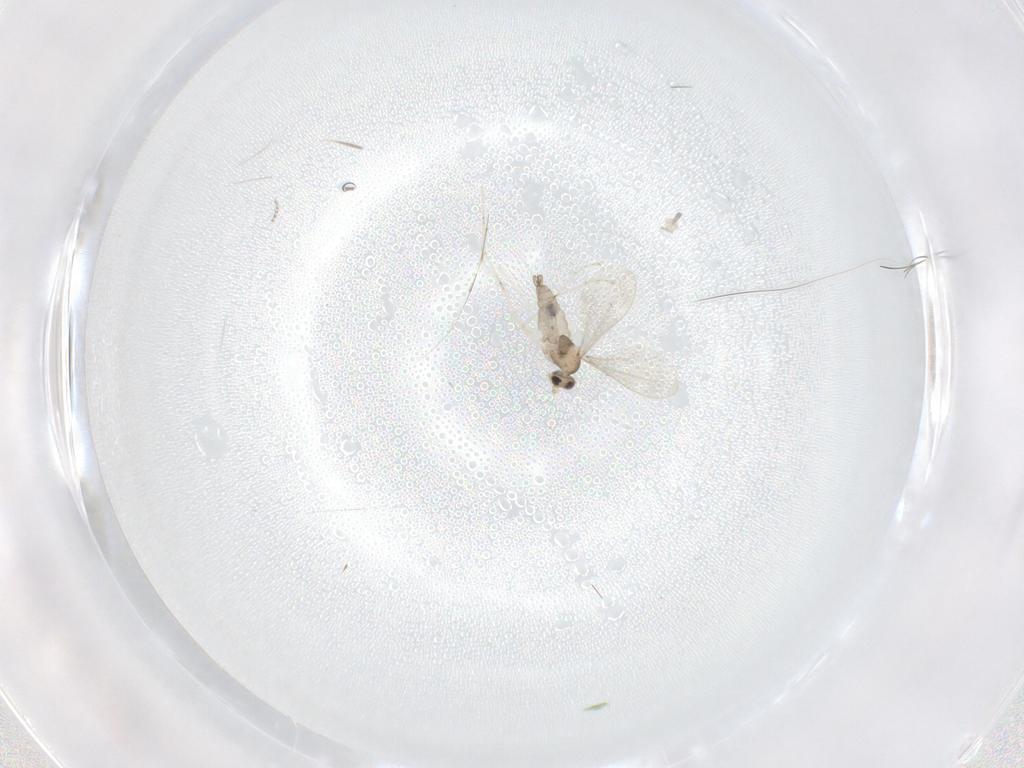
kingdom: Animalia
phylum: Arthropoda
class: Insecta
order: Diptera
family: Cecidomyiidae
